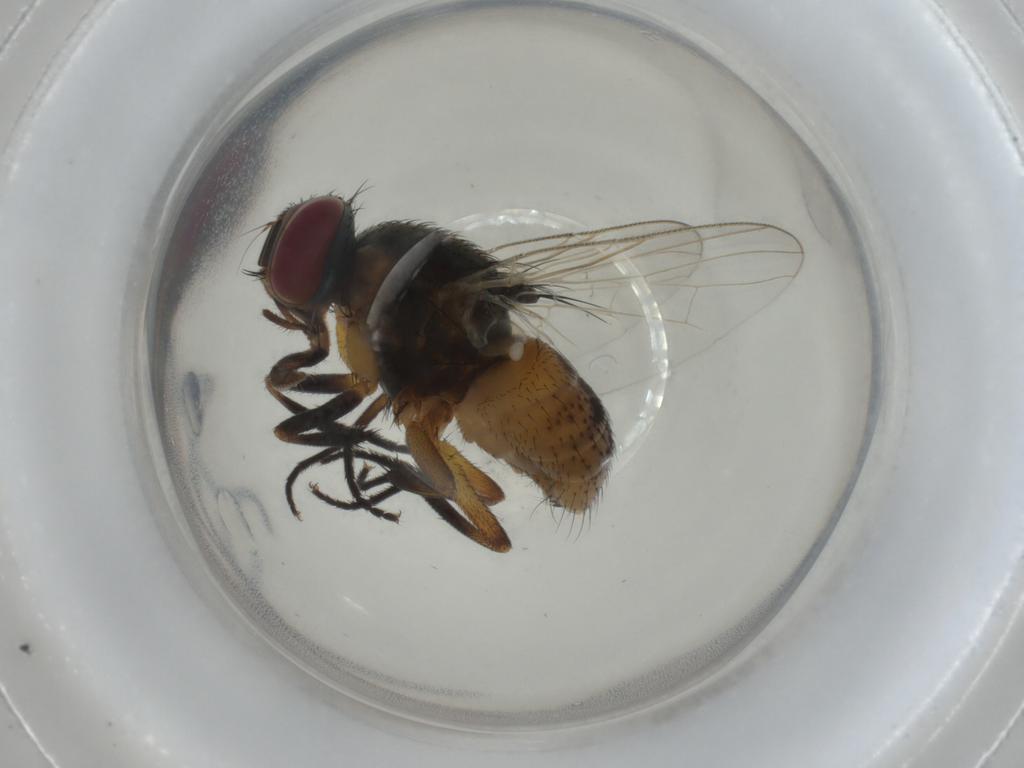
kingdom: Animalia
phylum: Arthropoda
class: Insecta
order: Diptera
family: Muscidae
